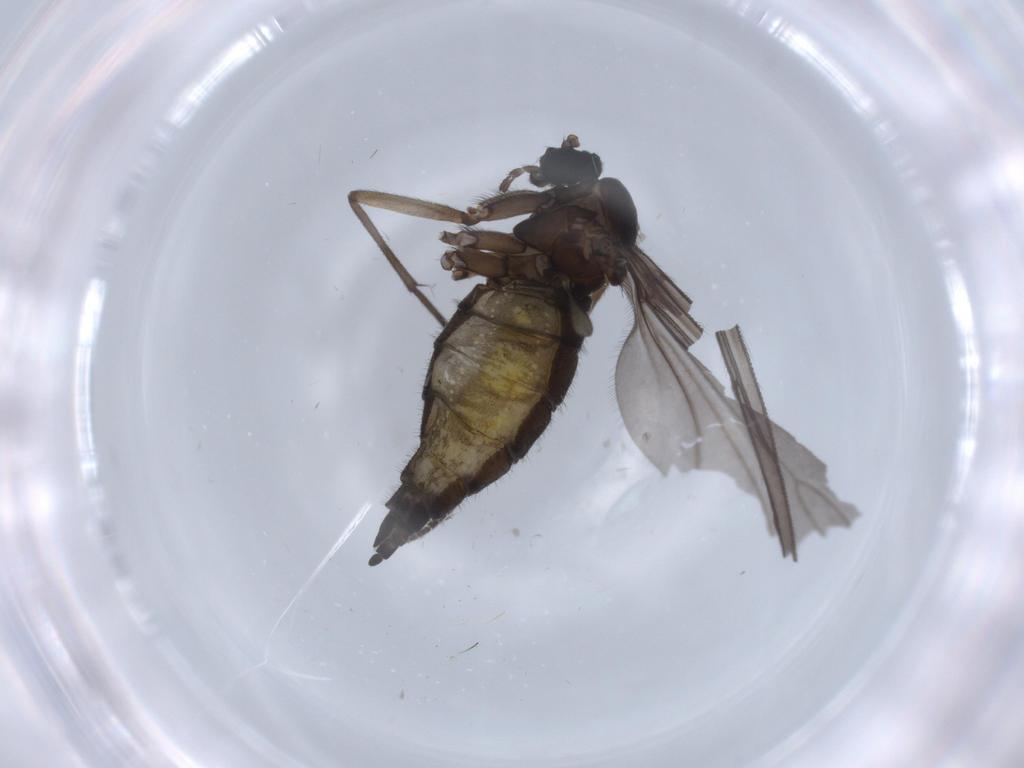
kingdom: Animalia
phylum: Arthropoda
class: Insecta
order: Diptera
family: Sciaridae
